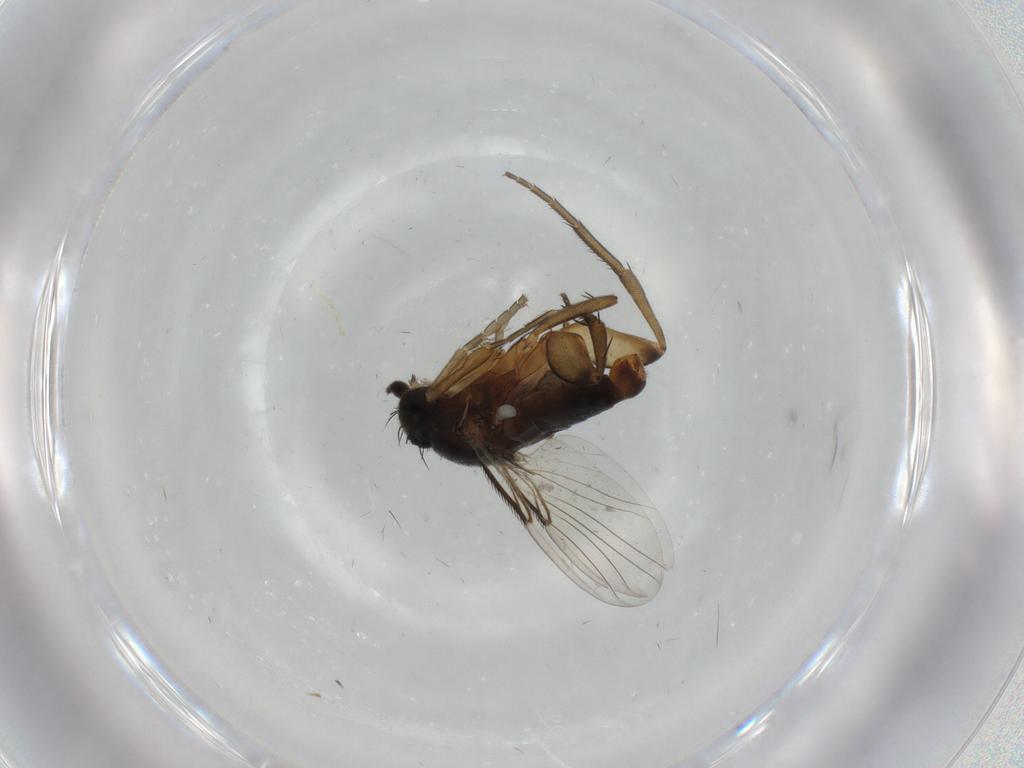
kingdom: Animalia
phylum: Arthropoda
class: Insecta
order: Diptera
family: Phoridae
